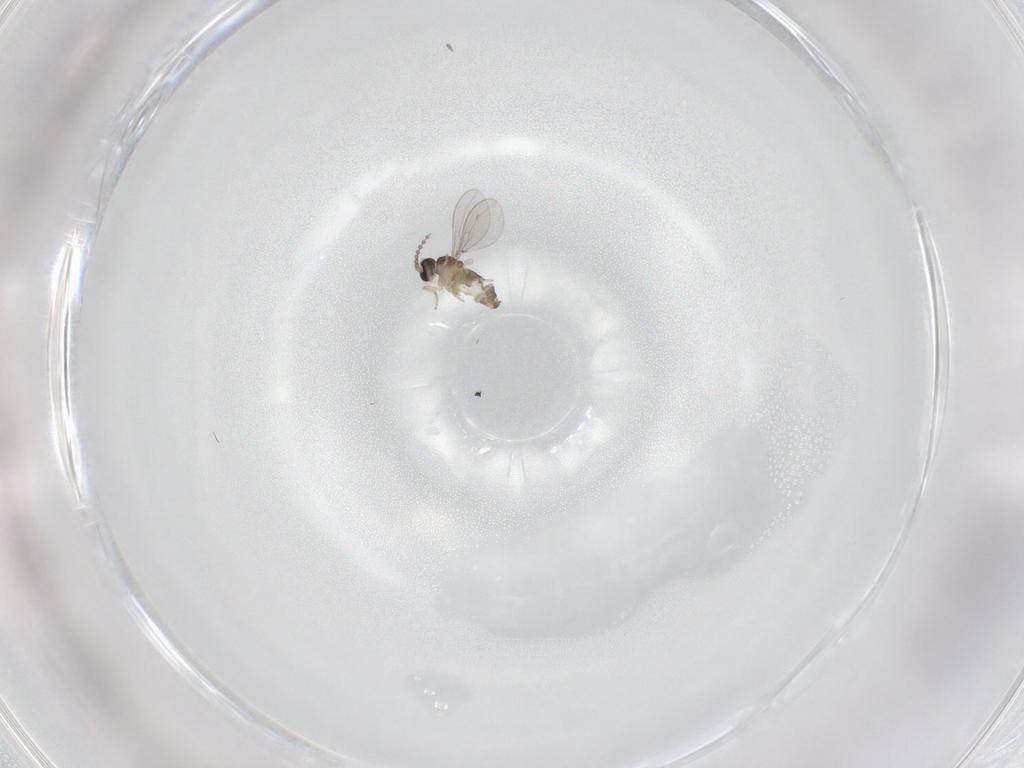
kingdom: Animalia
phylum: Arthropoda
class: Insecta
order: Diptera
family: Cecidomyiidae
